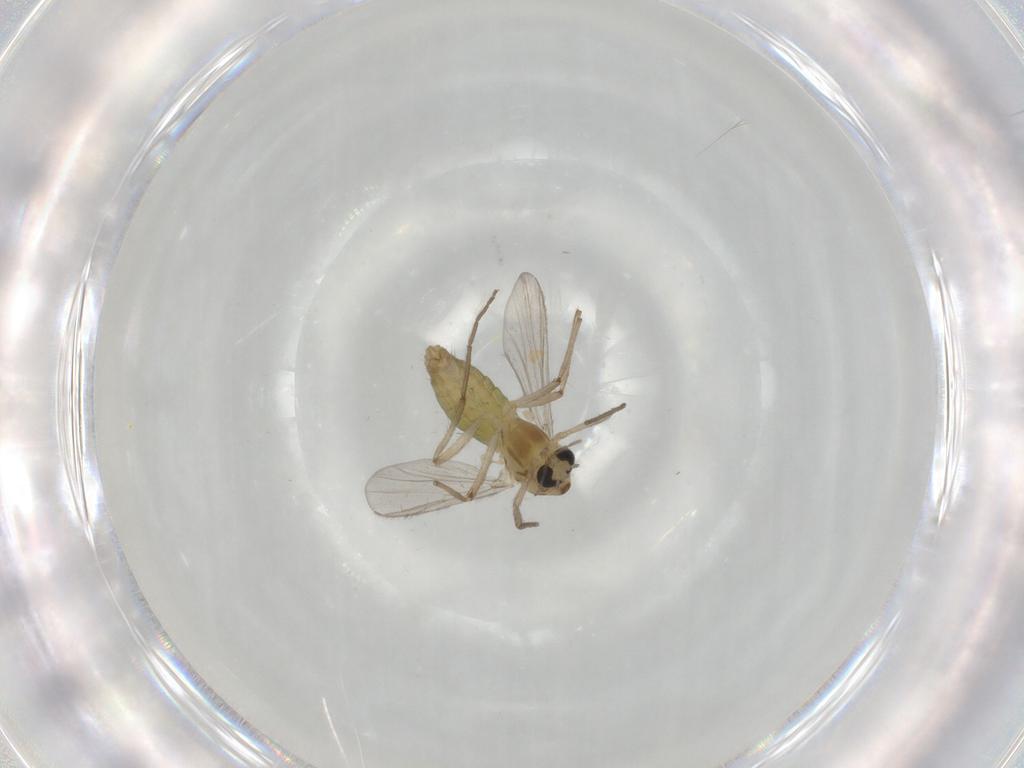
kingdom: Animalia
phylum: Arthropoda
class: Insecta
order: Diptera
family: Chironomidae
